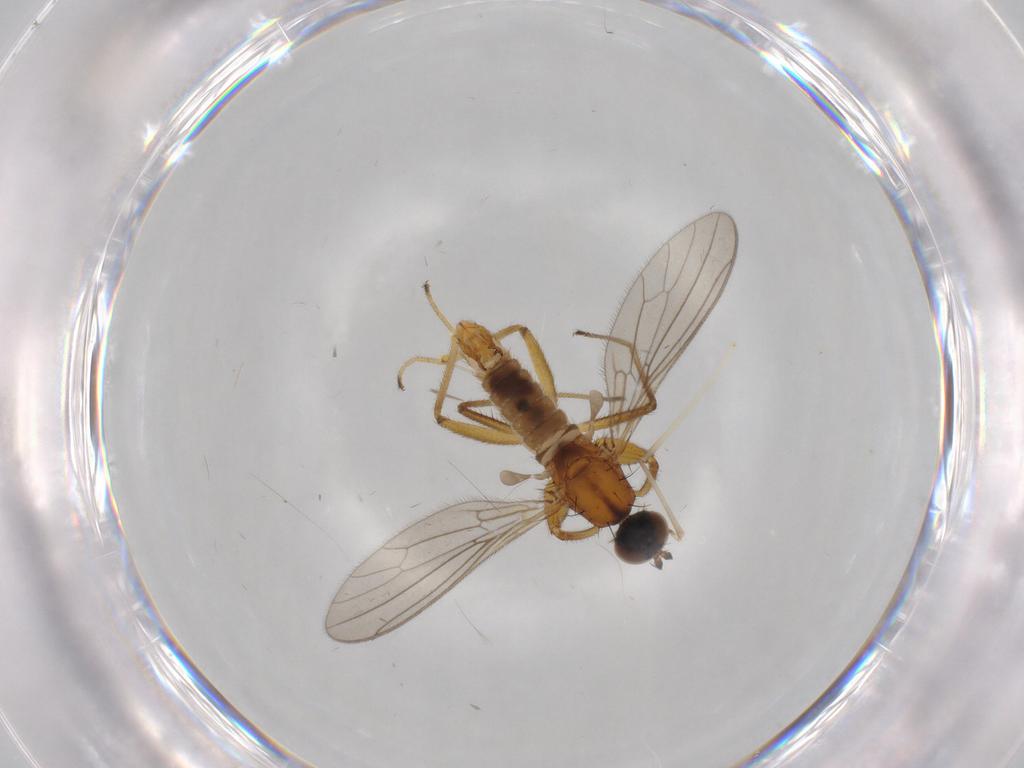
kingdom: Animalia
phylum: Arthropoda
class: Insecta
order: Diptera
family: Empididae
